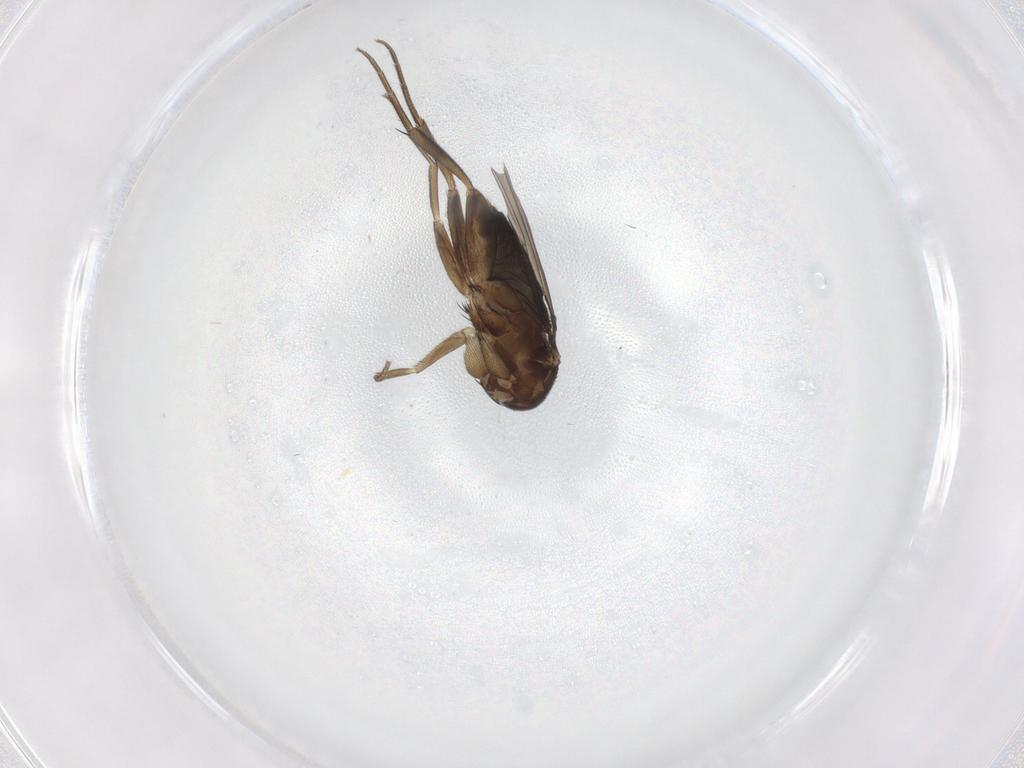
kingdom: Animalia
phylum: Arthropoda
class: Insecta
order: Diptera
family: Phoridae
